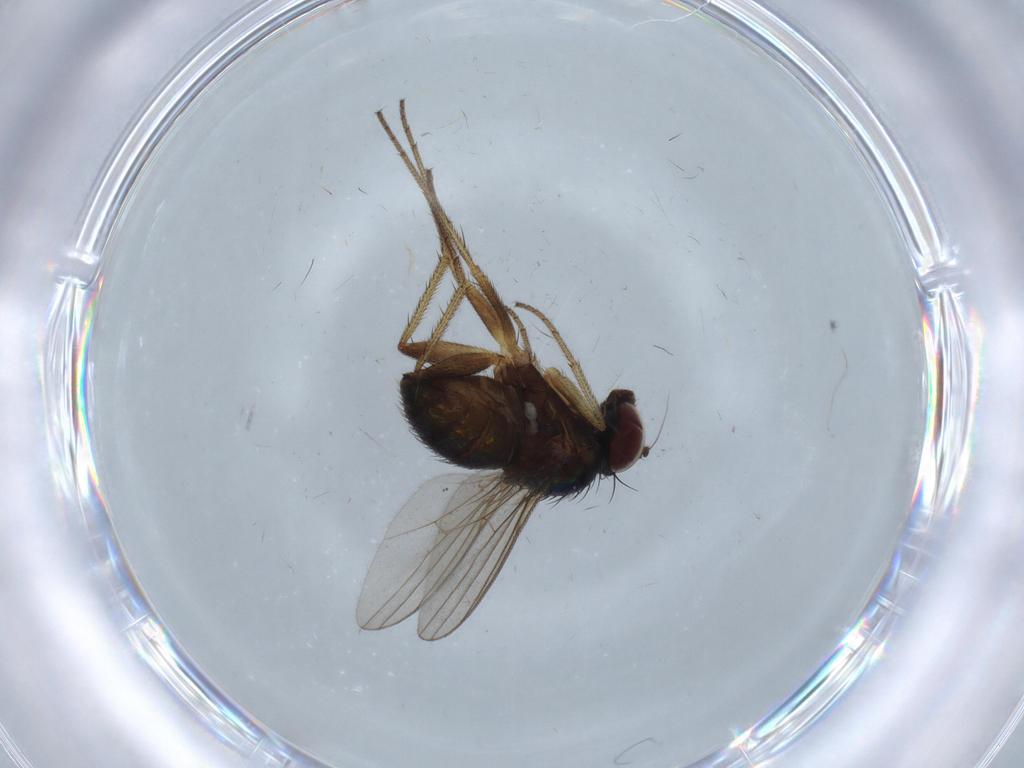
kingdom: Animalia
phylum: Arthropoda
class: Insecta
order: Diptera
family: Cecidomyiidae
